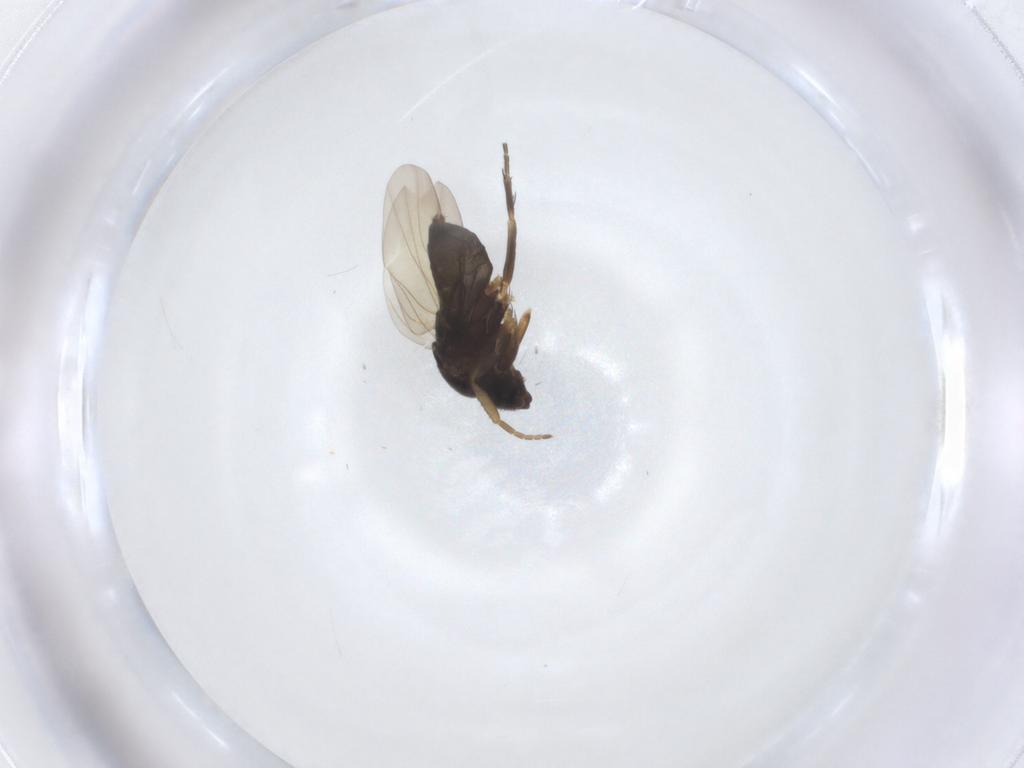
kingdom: Animalia
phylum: Arthropoda
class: Insecta
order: Diptera
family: Phoridae
